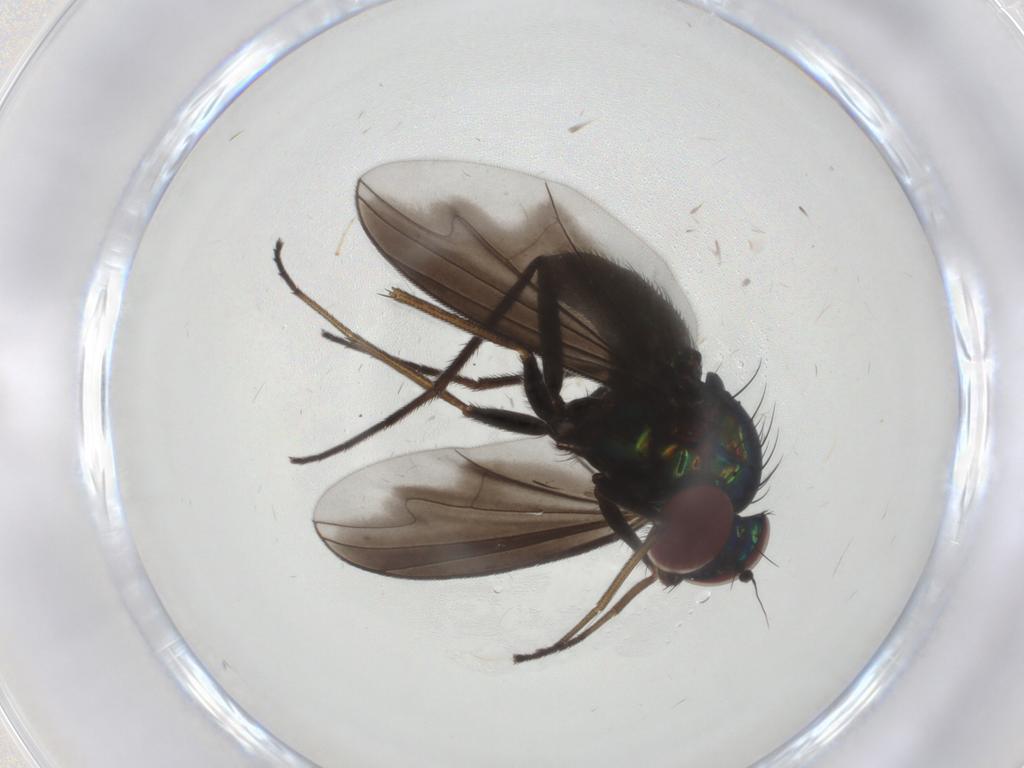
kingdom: Animalia
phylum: Arthropoda
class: Insecta
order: Diptera
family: Dolichopodidae
